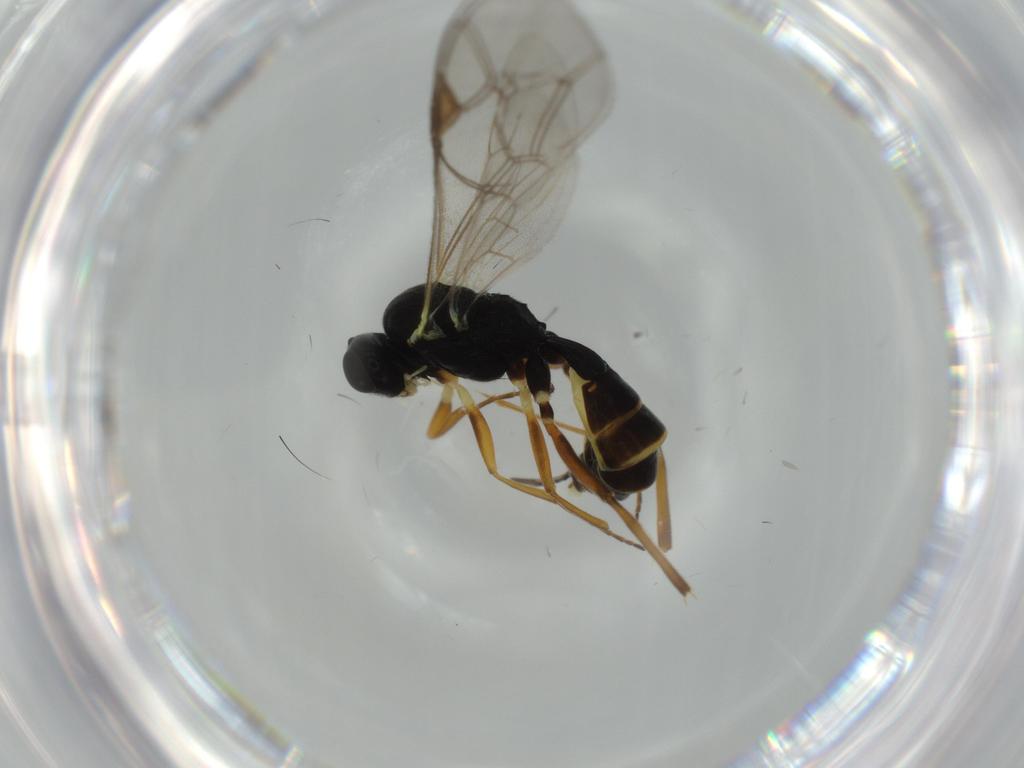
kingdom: Animalia
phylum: Arthropoda
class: Insecta
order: Hymenoptera
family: Ichneumonidae
